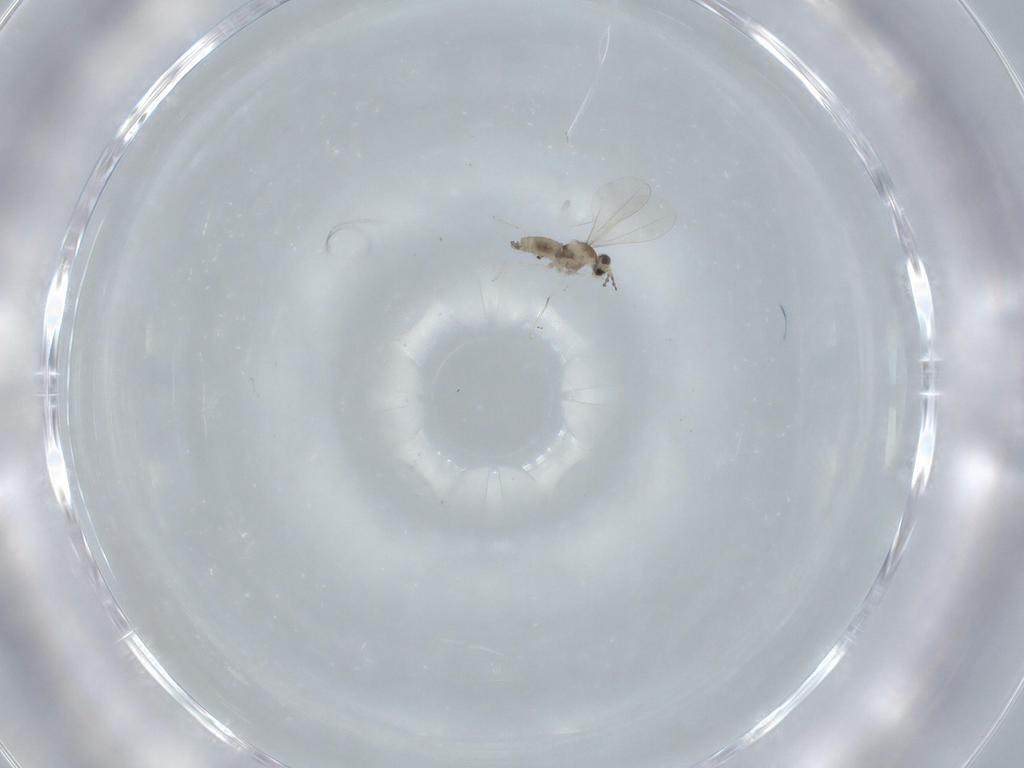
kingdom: Animalia
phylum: Arthropoda
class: Insecta
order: Diptera
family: Cecidomyiidae
